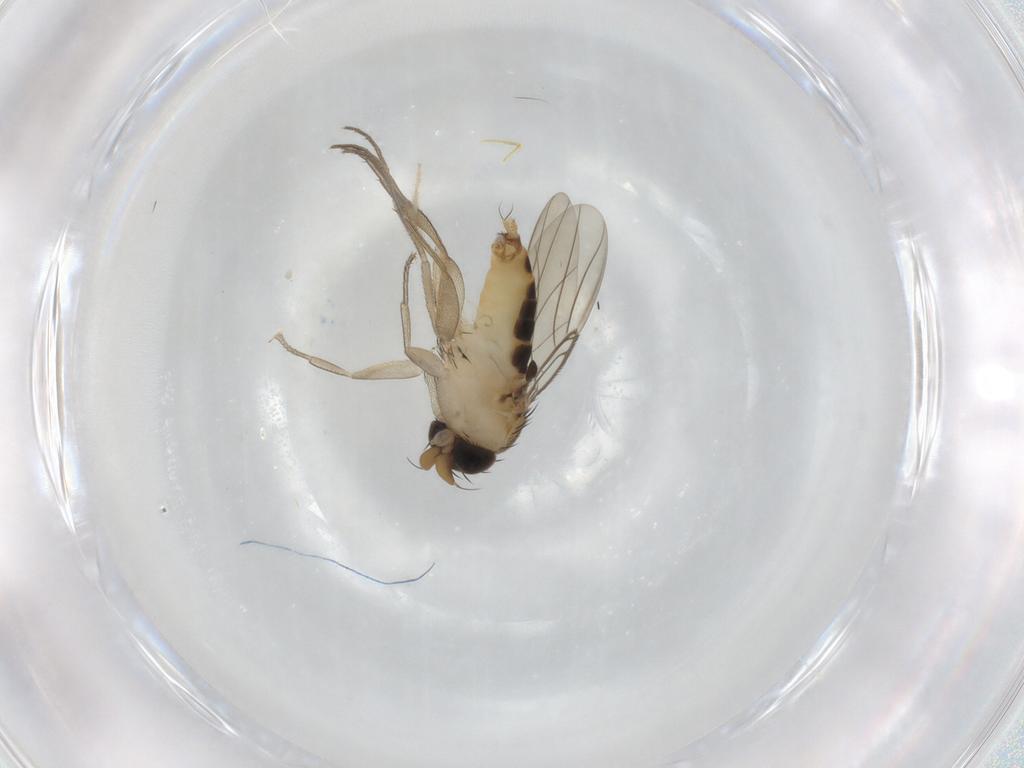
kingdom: Animalia
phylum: Arthropoda
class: Insecta
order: Diptera
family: Phoridae
